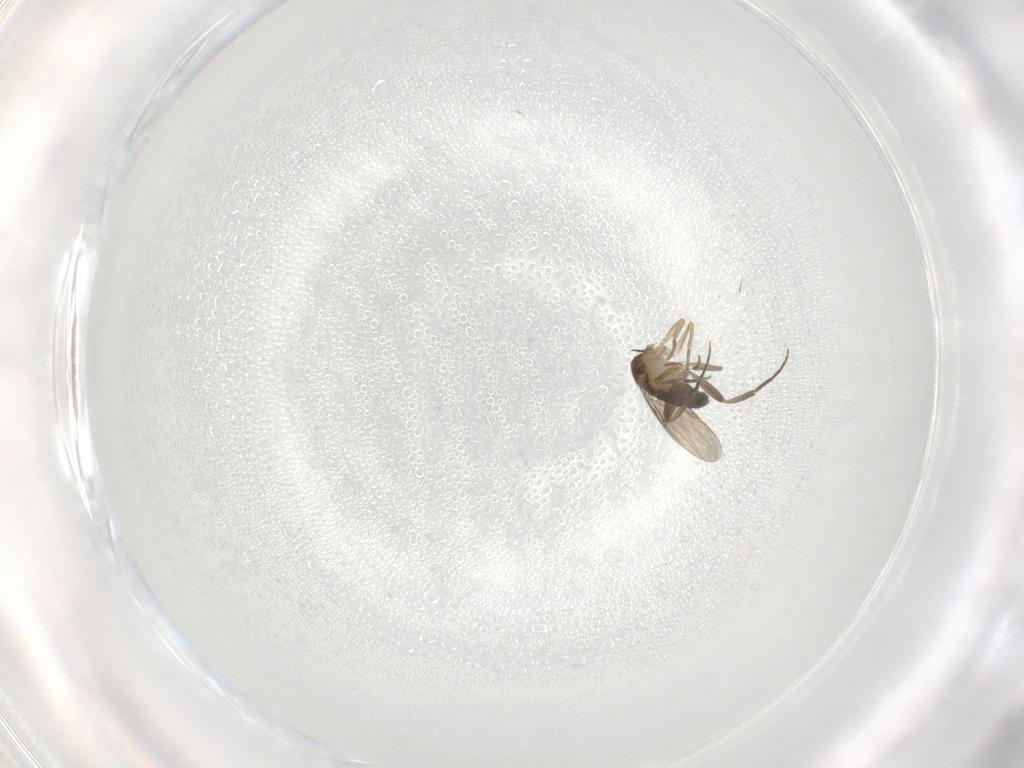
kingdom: Animalia
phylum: Arthropoda
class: Insecta
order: Diptera
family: Phoridae
